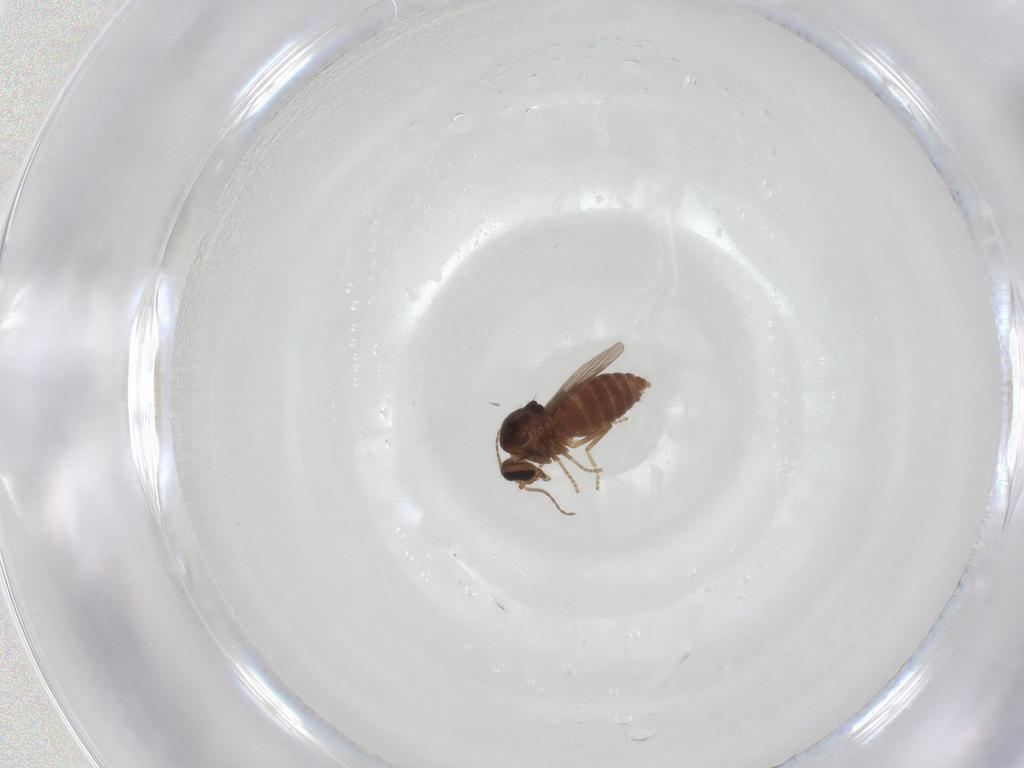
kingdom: Animalia
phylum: Arthropoda
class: Insecta
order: Diptera
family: Ceratopogonidae
